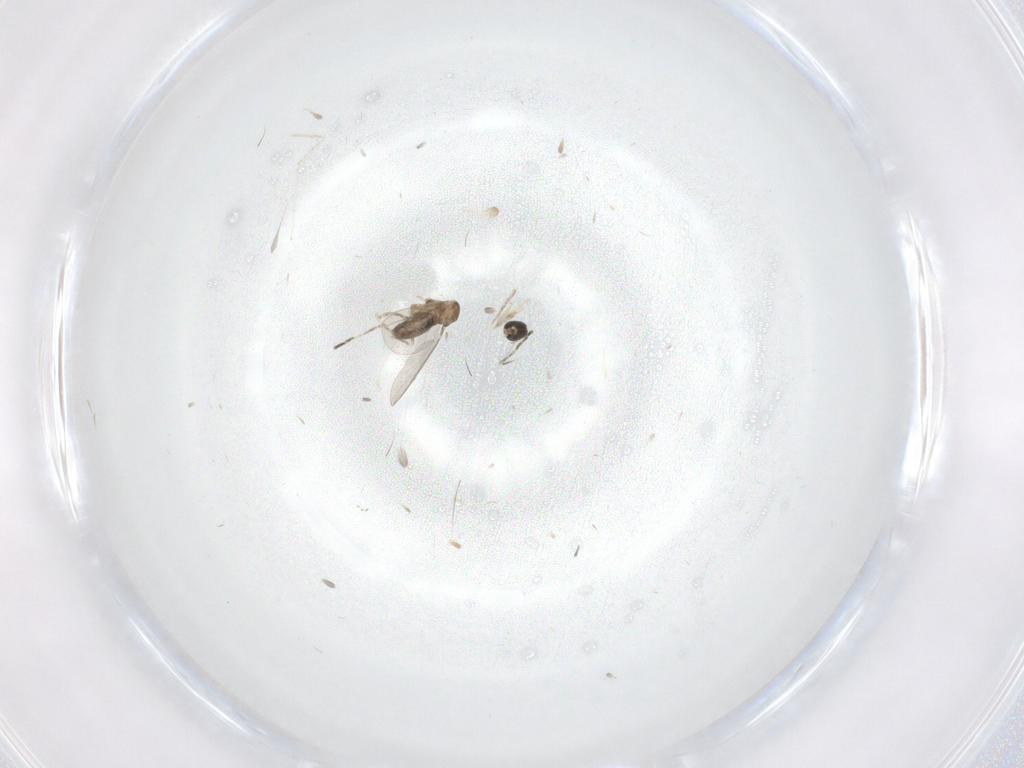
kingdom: Animalia
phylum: Arthropoda
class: Insecta
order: Diptera
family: Cecidomyiidae
